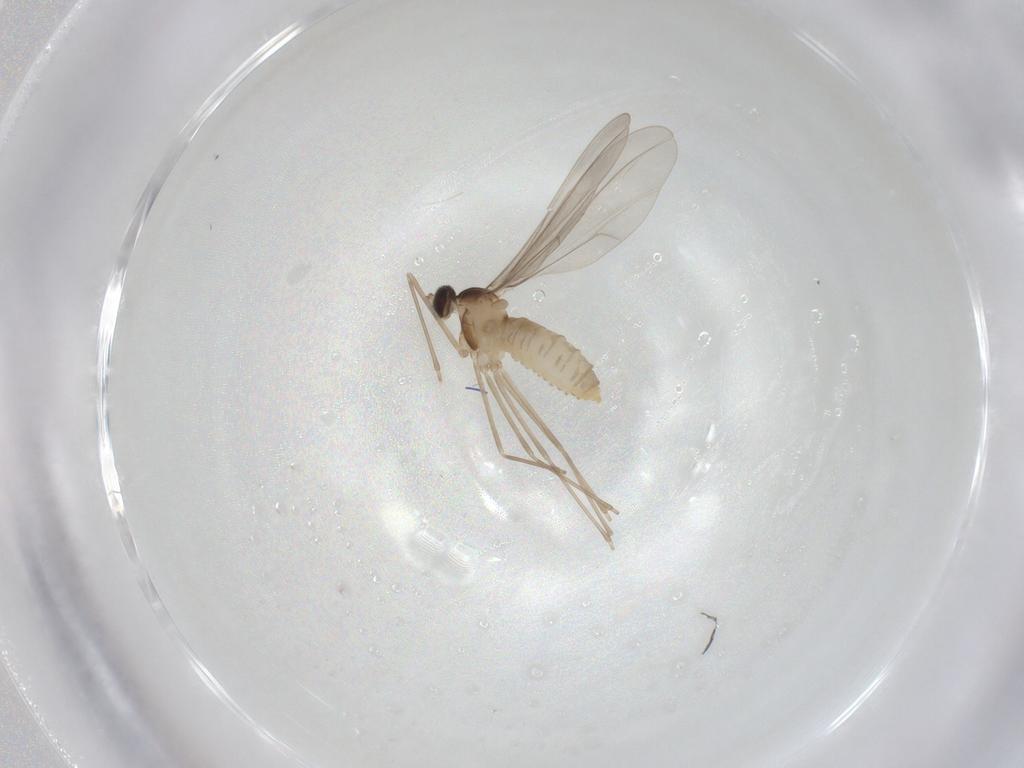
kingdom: Animalia
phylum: Arthropoda
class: Insecta
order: Diptera
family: Cecidomyiidae
